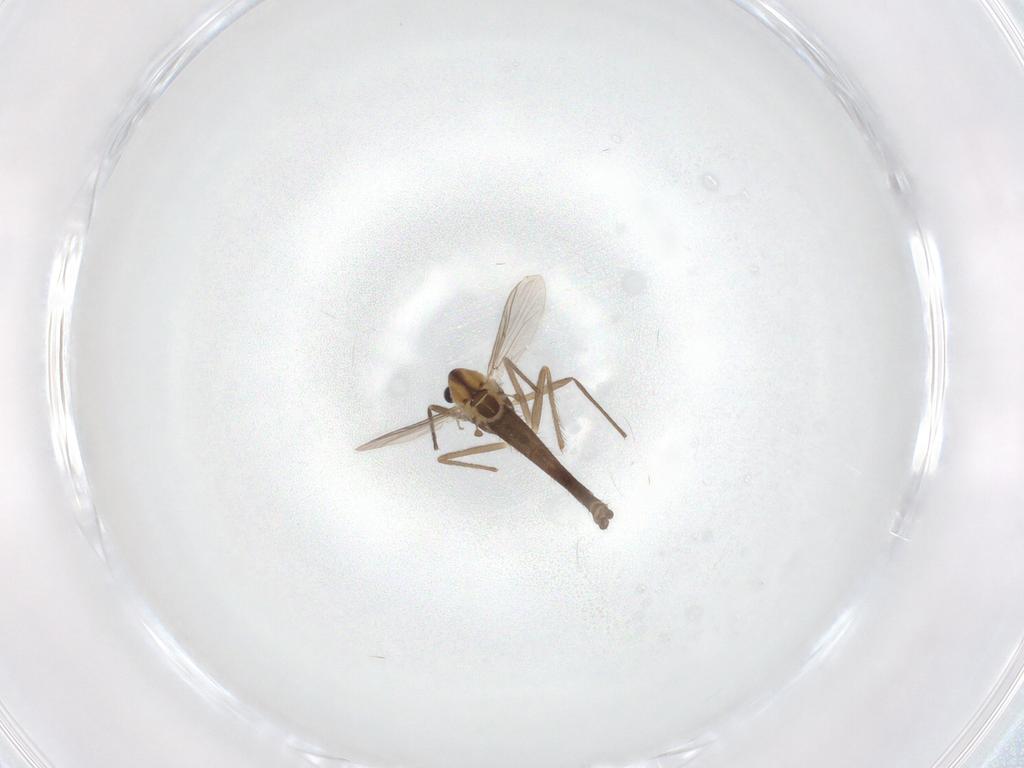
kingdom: Animalia
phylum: Arthropoda
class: Insecta
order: Diptera
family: Chironomidae
